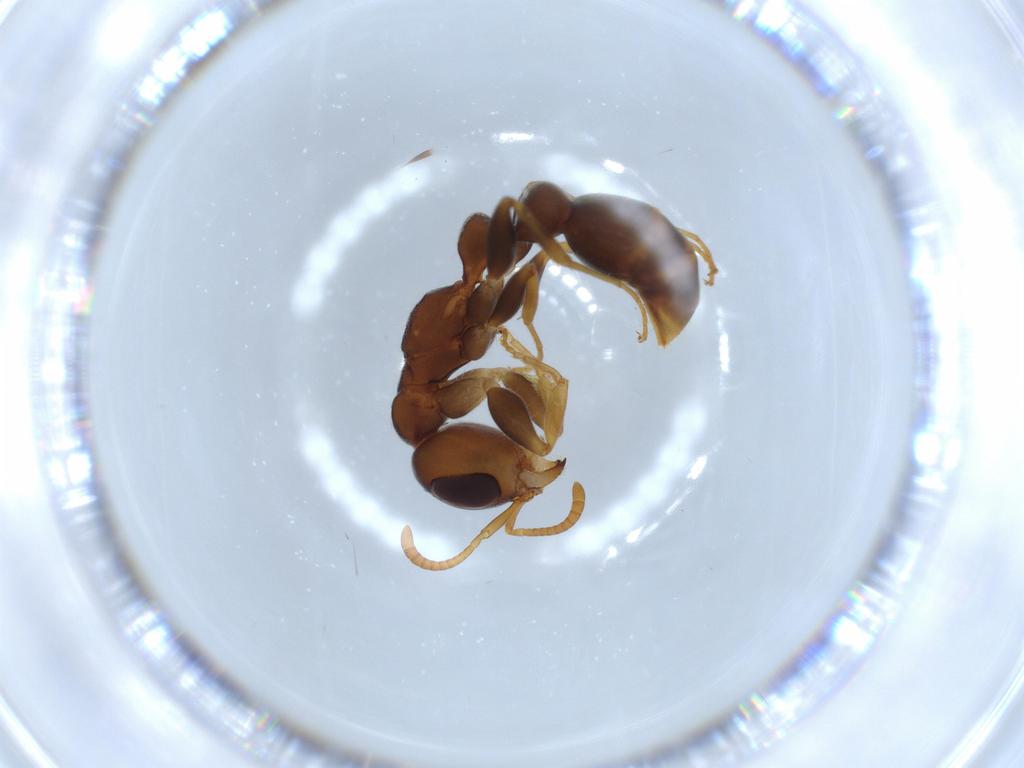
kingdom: Animalia
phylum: Arthropoda
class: Insecta
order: Hymenoptera
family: Formicidae
